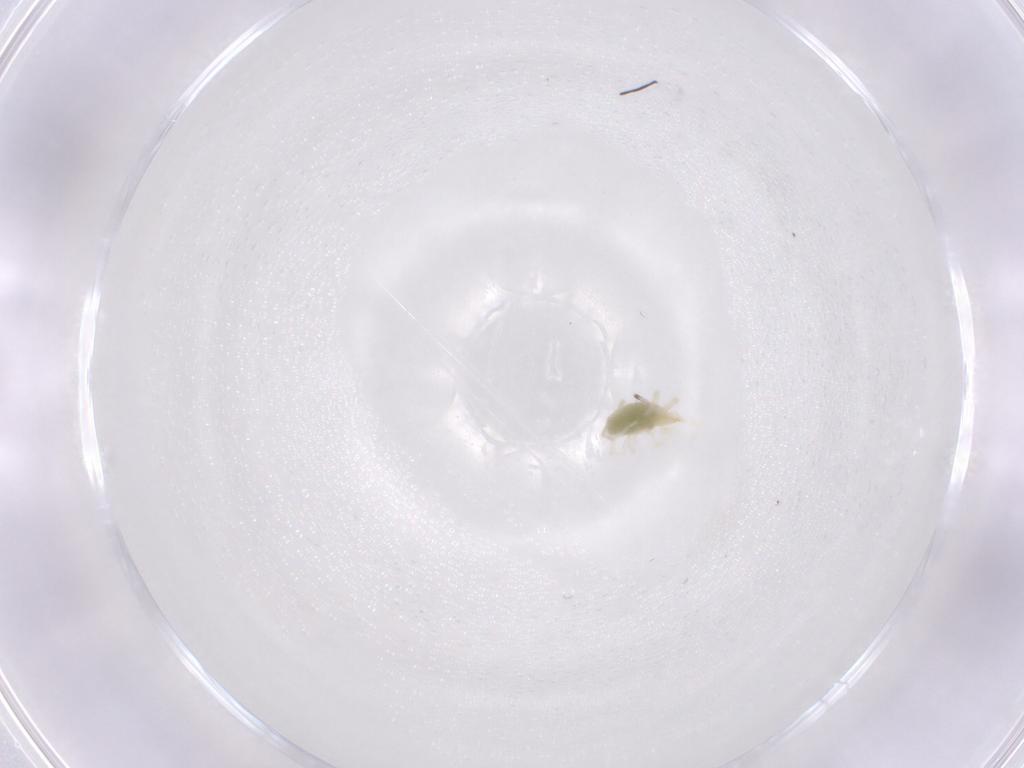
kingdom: Animalia
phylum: Arthropoda
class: Arachnida
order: Trombidiformes
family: Erythraeidae
